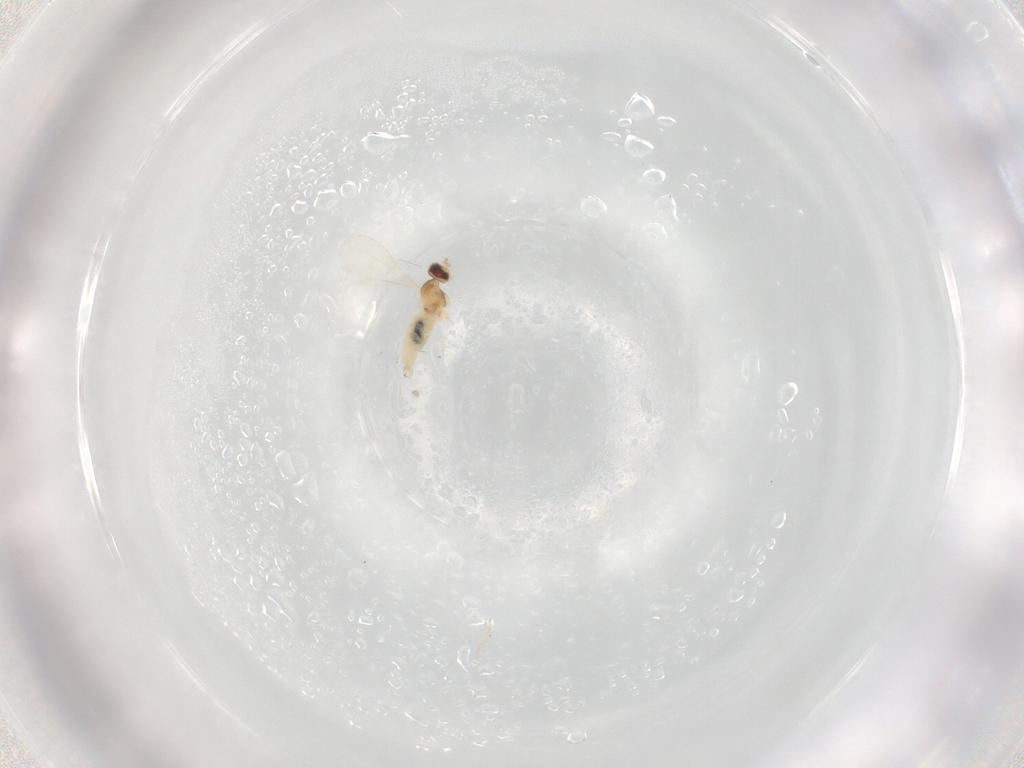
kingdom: Animalia
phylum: Arthropoda
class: Insecta
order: Diptera
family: Cecidomyiidae
